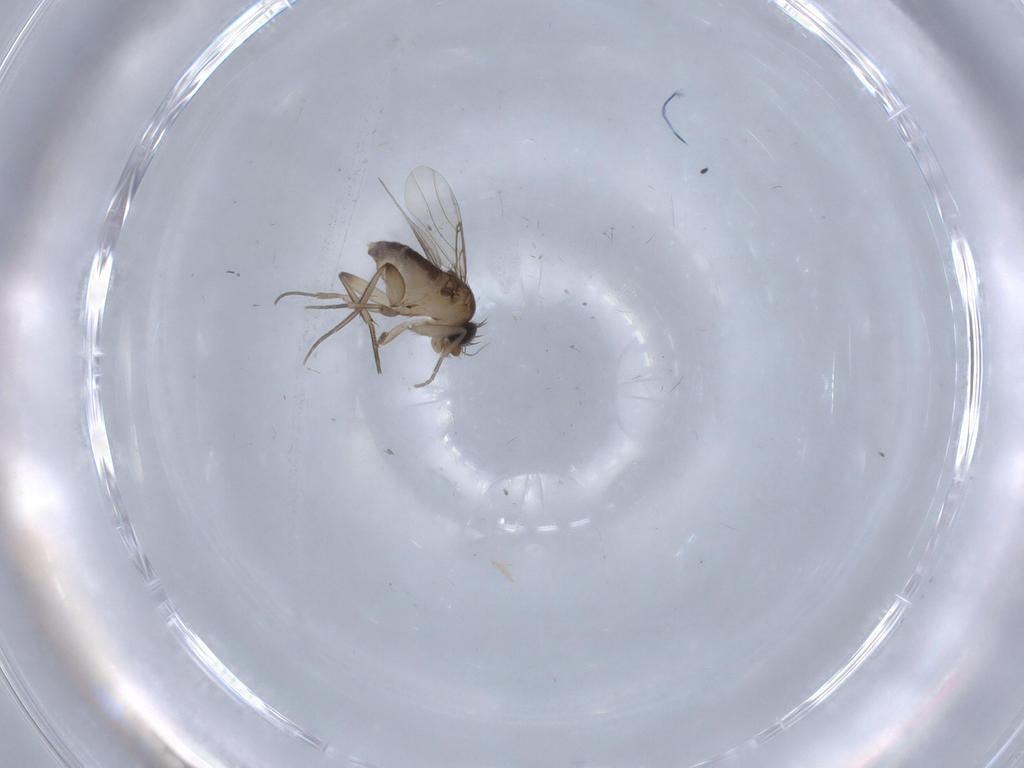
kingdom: Animalia
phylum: Arthropoda
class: Insecta
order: Diptera
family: Phoridae
